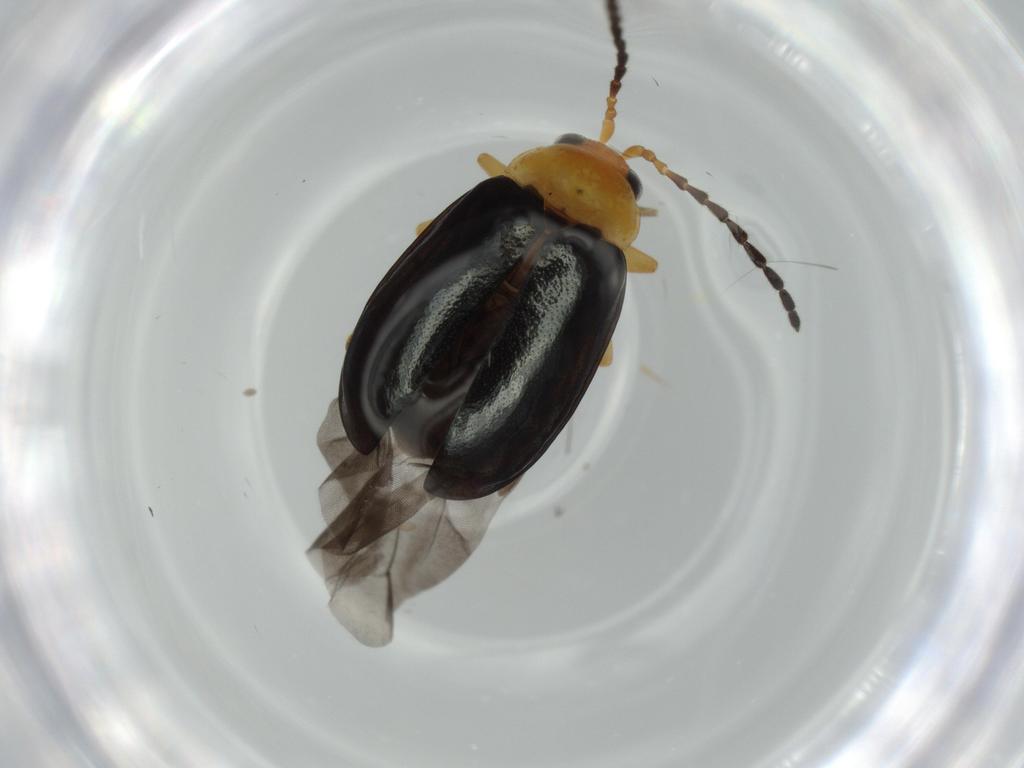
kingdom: Animalia
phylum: Arthropoda
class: Insecta
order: Coleoptera
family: Chrysomelidae
